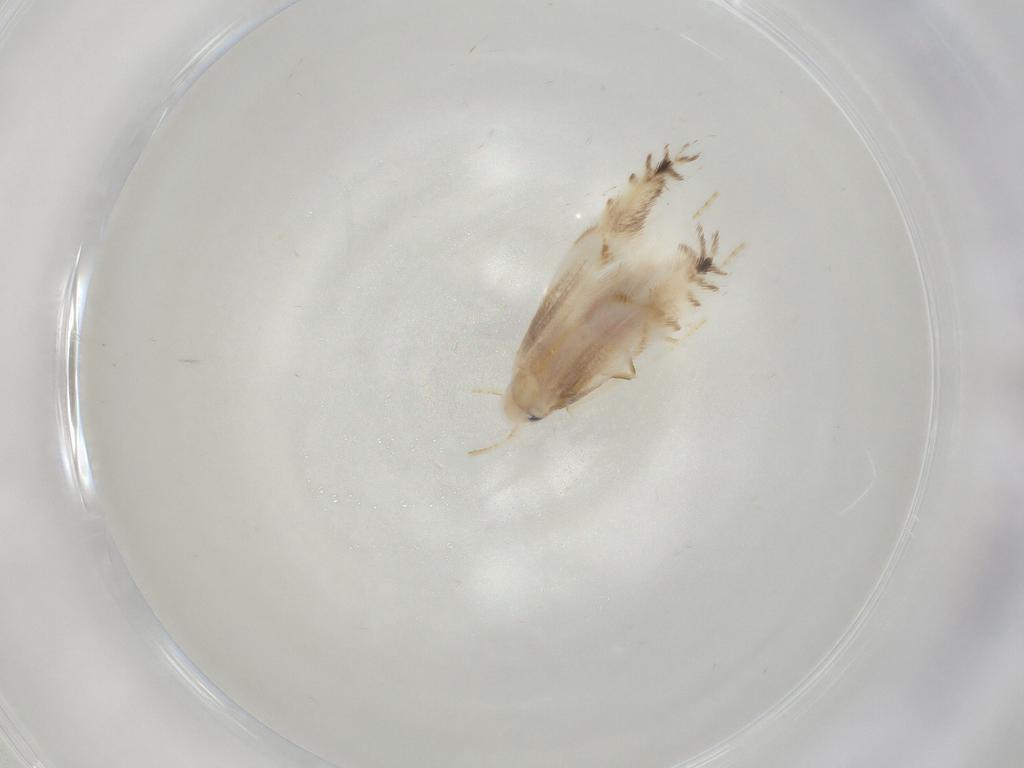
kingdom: Animalia
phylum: Arthropoda
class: Insecta
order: Lepidoptera
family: Gracillariidae
